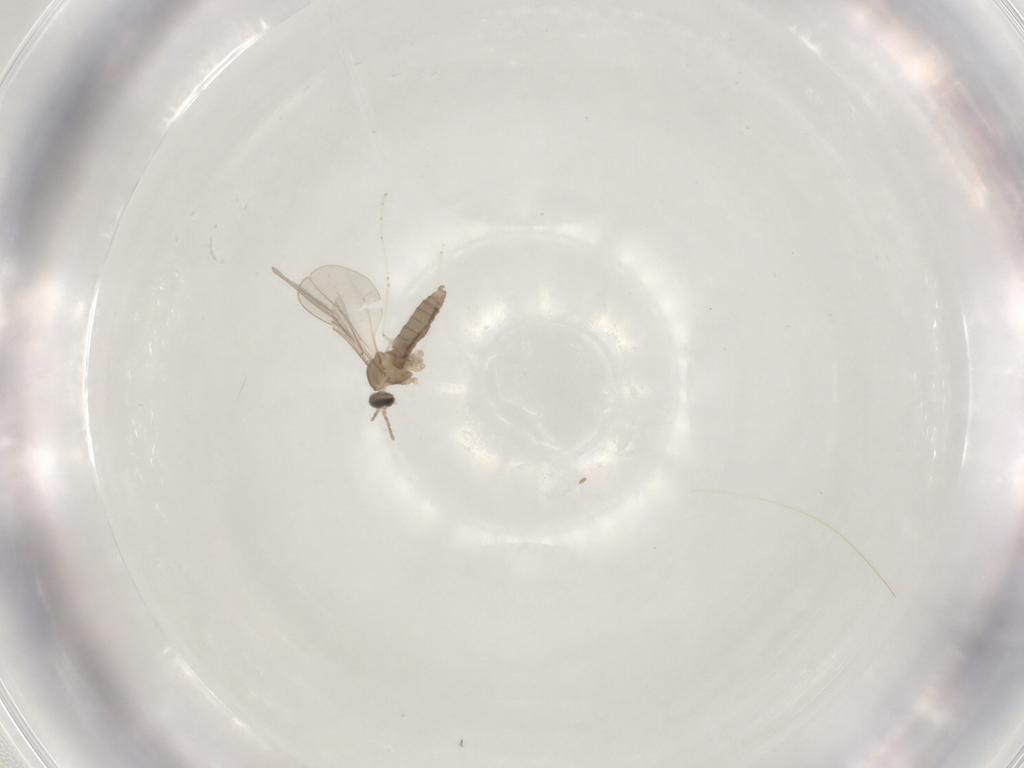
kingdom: Animalia
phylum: Arthropoda
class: Insecta
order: Diptera
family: Cecidomyiidae
